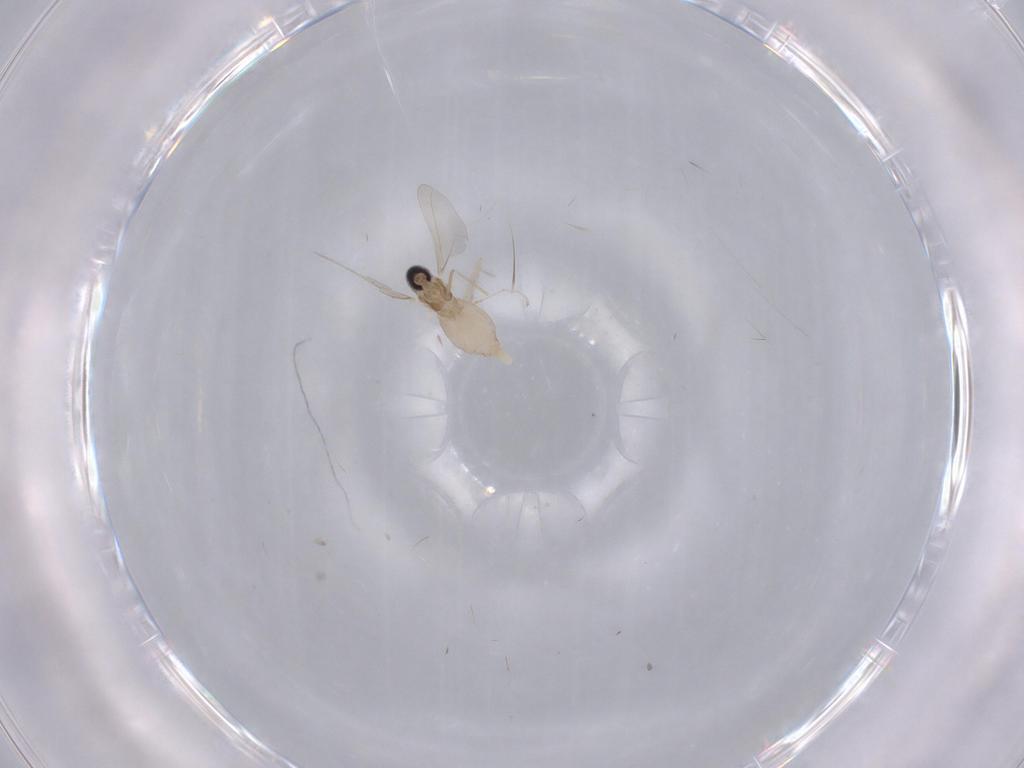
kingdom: Animalia
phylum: Arthropoda
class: Insecta
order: Diptera
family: Cecidomyiidae
